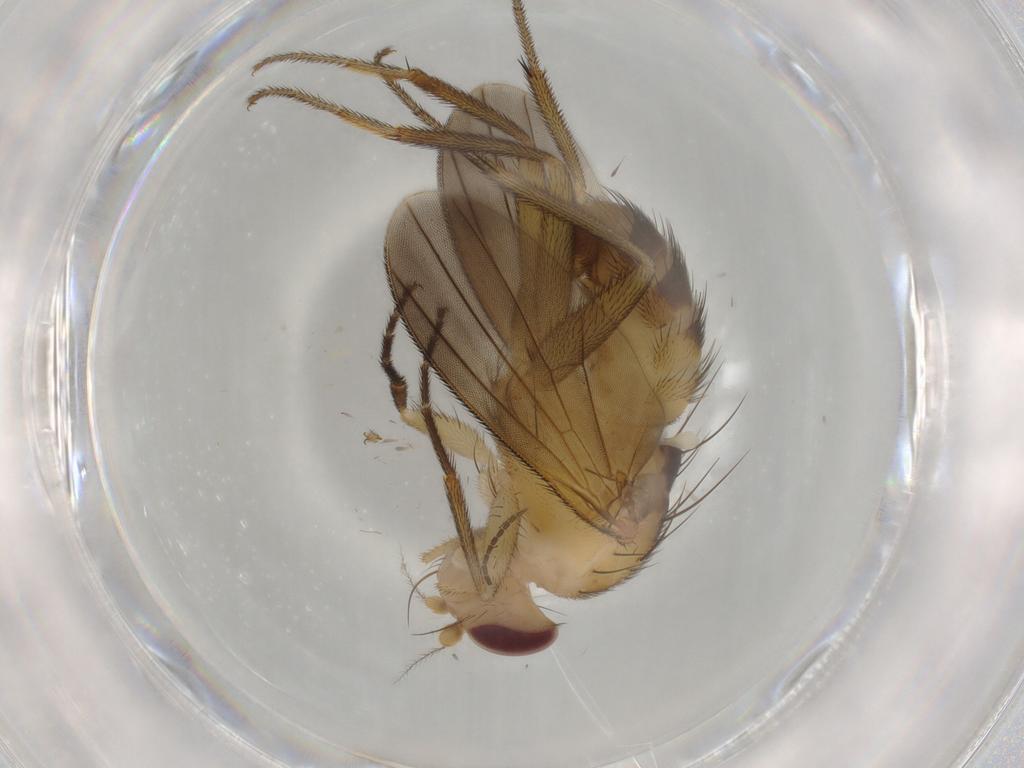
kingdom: Animalia
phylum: Arthropoda
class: Insecta
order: Diptera
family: Clusiidae
